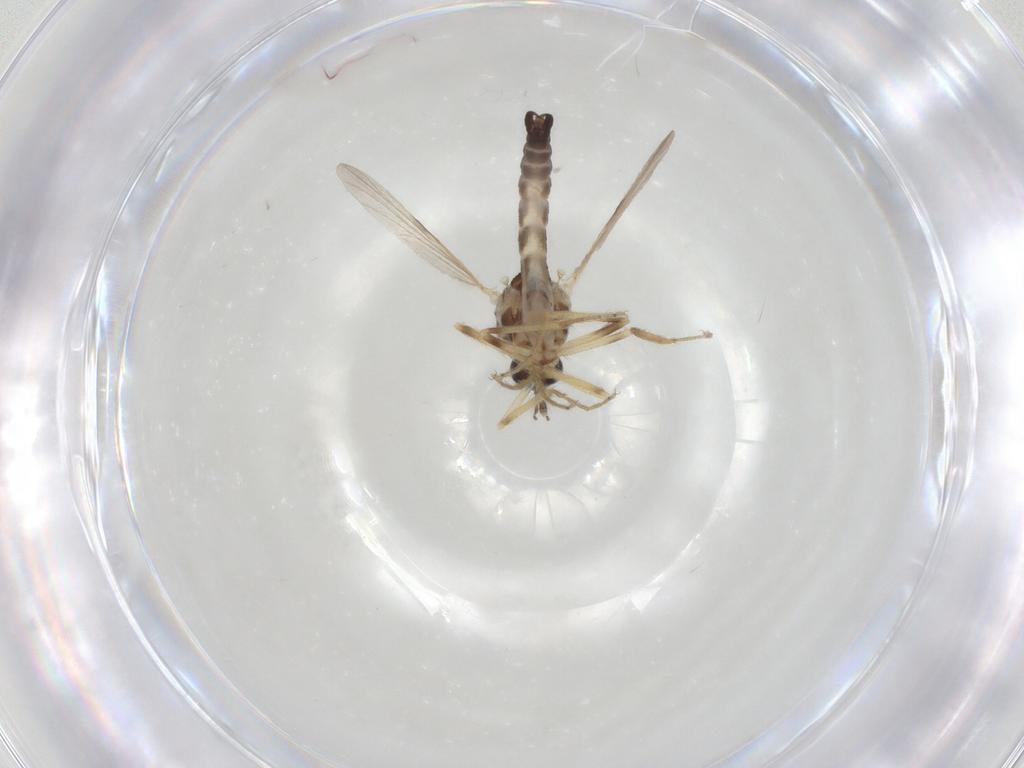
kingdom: Animalia
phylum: Arthropoda
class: Insecta
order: Diptera
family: Ceratopogonidae
